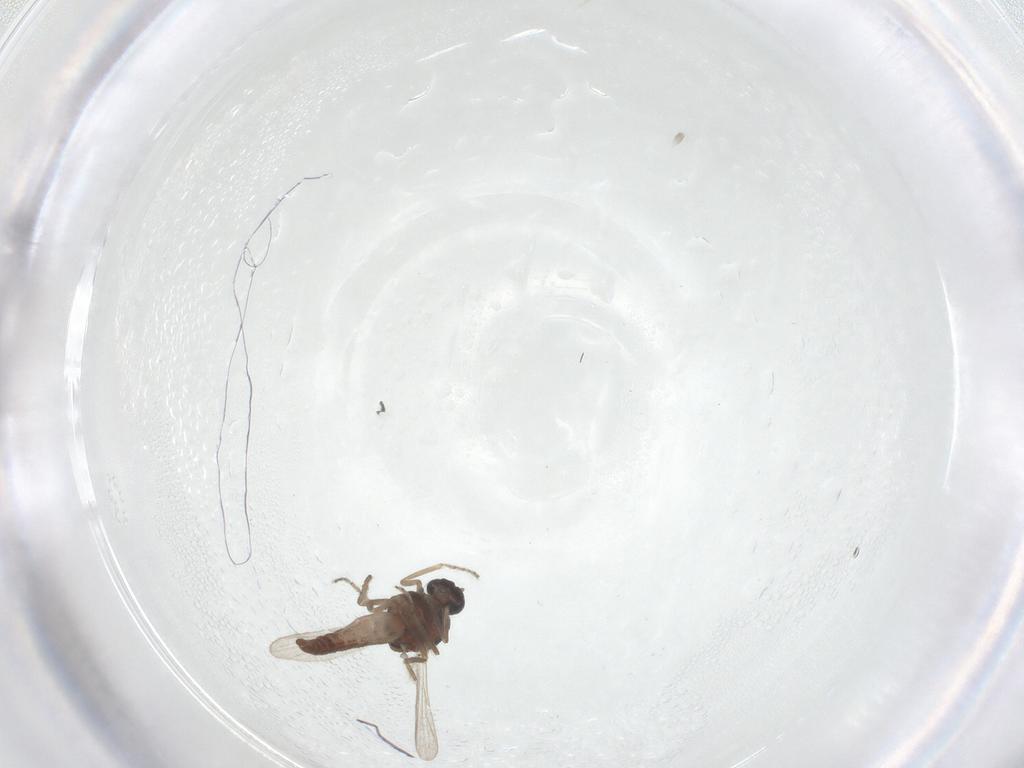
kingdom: Animalia
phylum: Arthropoda
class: Insecta
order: Diptera
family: Ceratopogonidae
